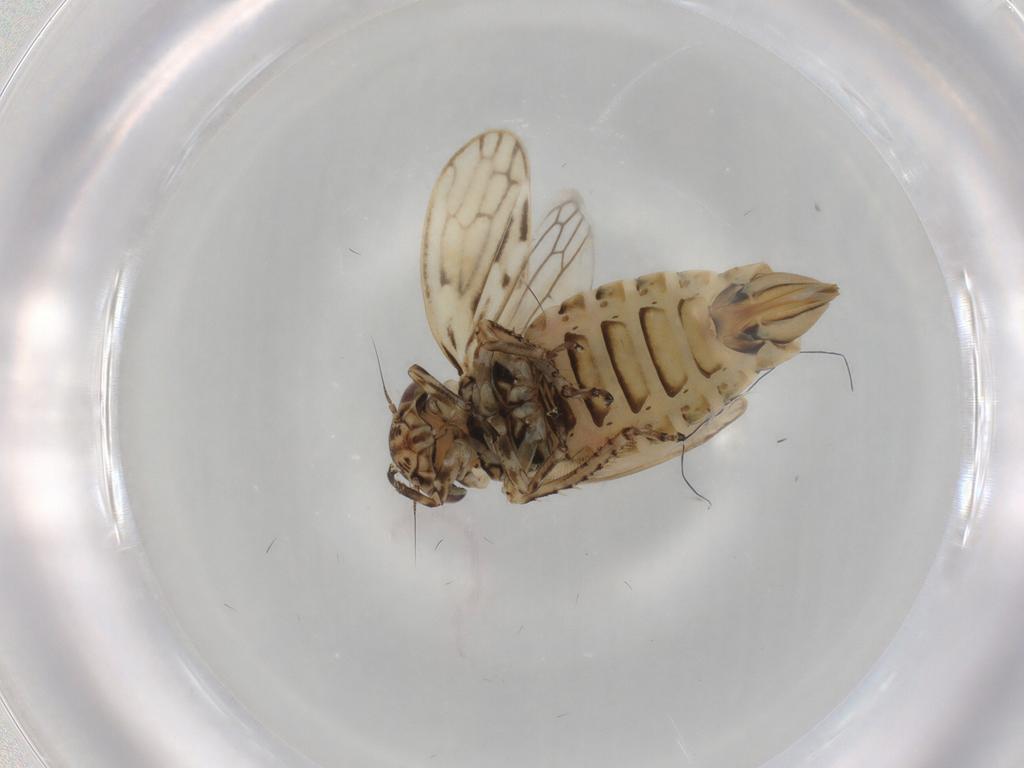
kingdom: Animalia
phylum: Arthropoda
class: Insecta
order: Hemiptera
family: Cicadellidae
